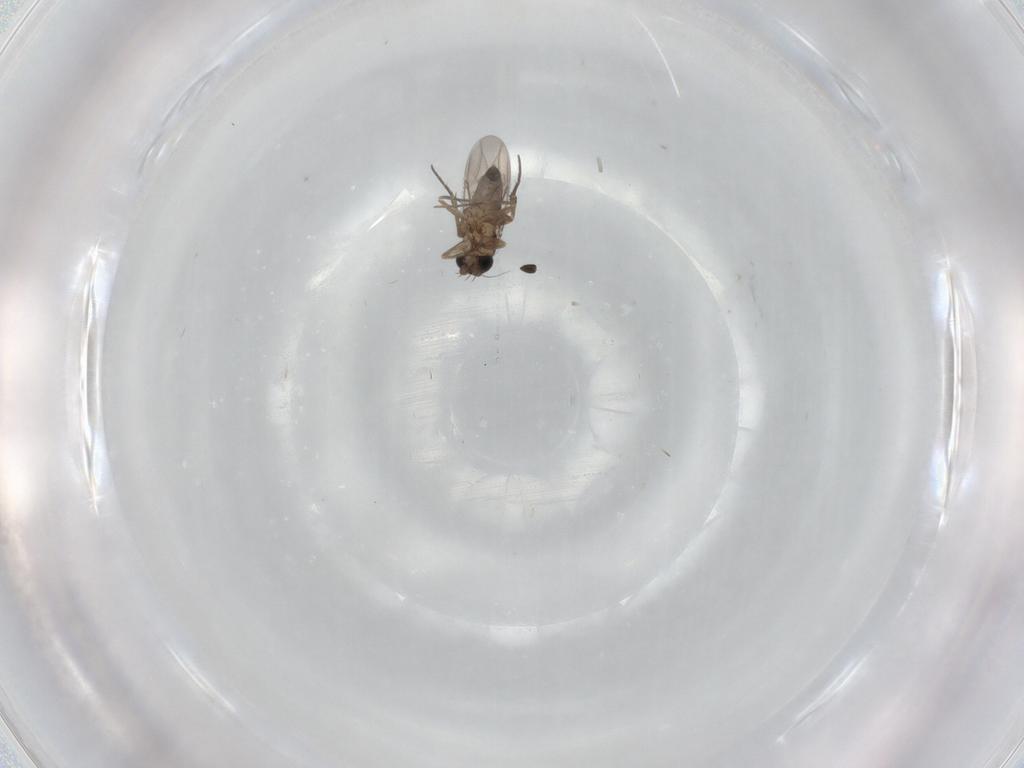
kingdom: Animalia
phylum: Arthropoda
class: Insecta
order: Diptera
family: Phoridae
